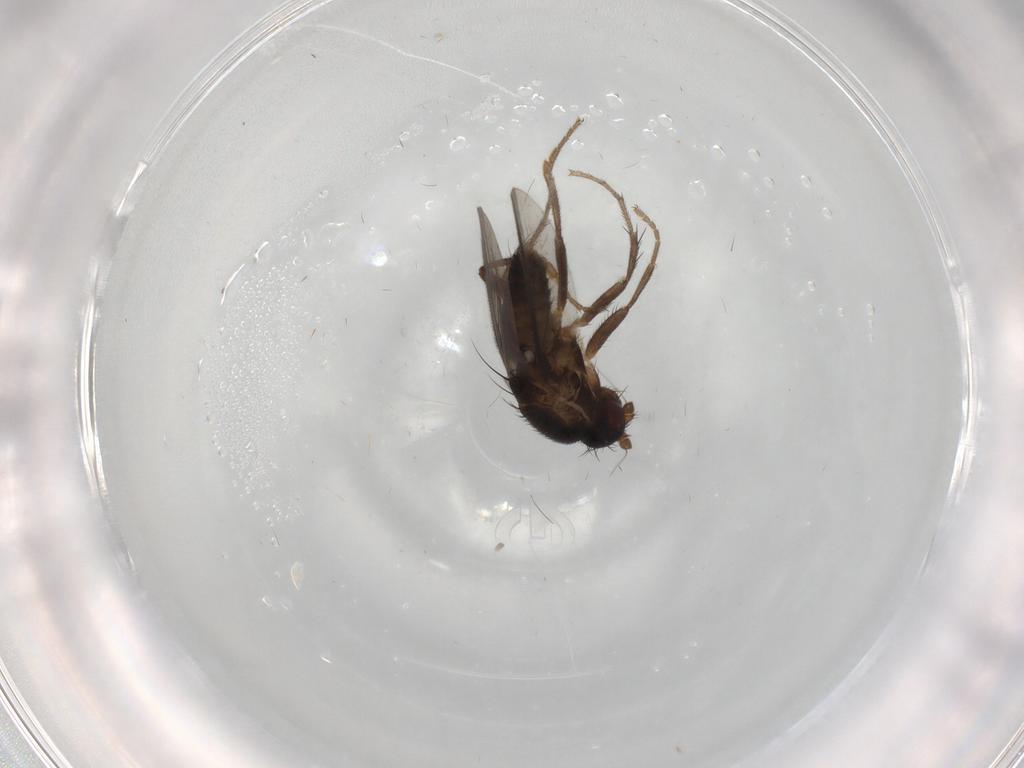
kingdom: Animalia
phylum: Arthropoda
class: Insecta
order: Diptera
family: Sphaeroceridae
